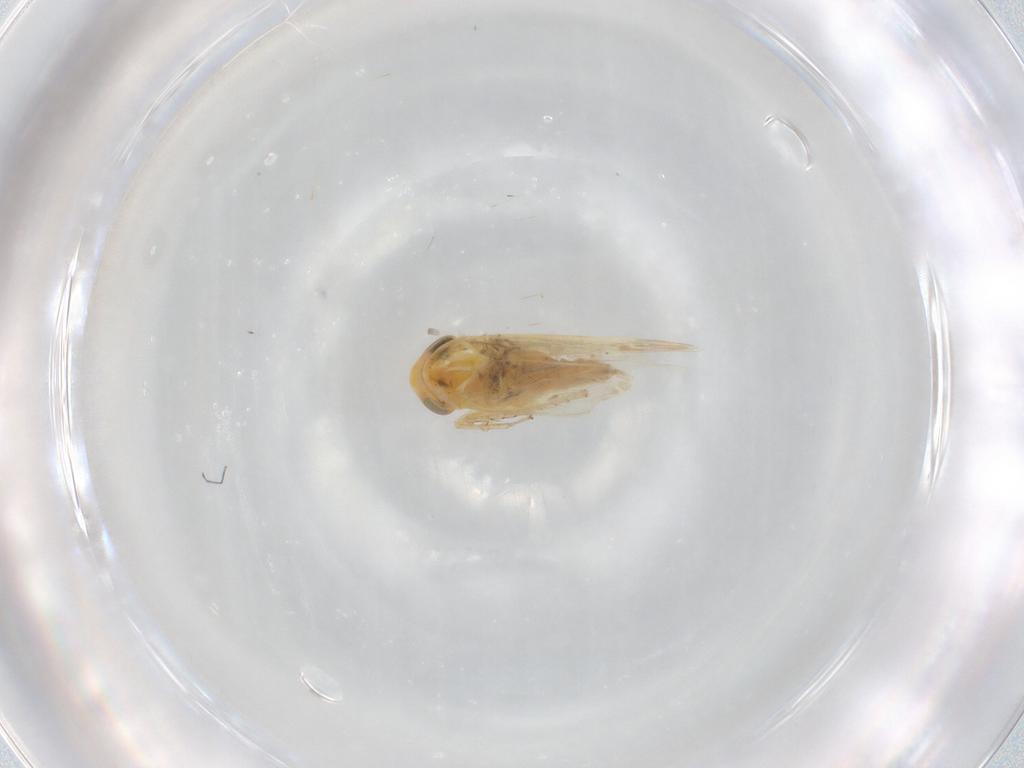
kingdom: Animalia
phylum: Arthropoda
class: Insecta
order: Hemiptera
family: Cicadellidae
